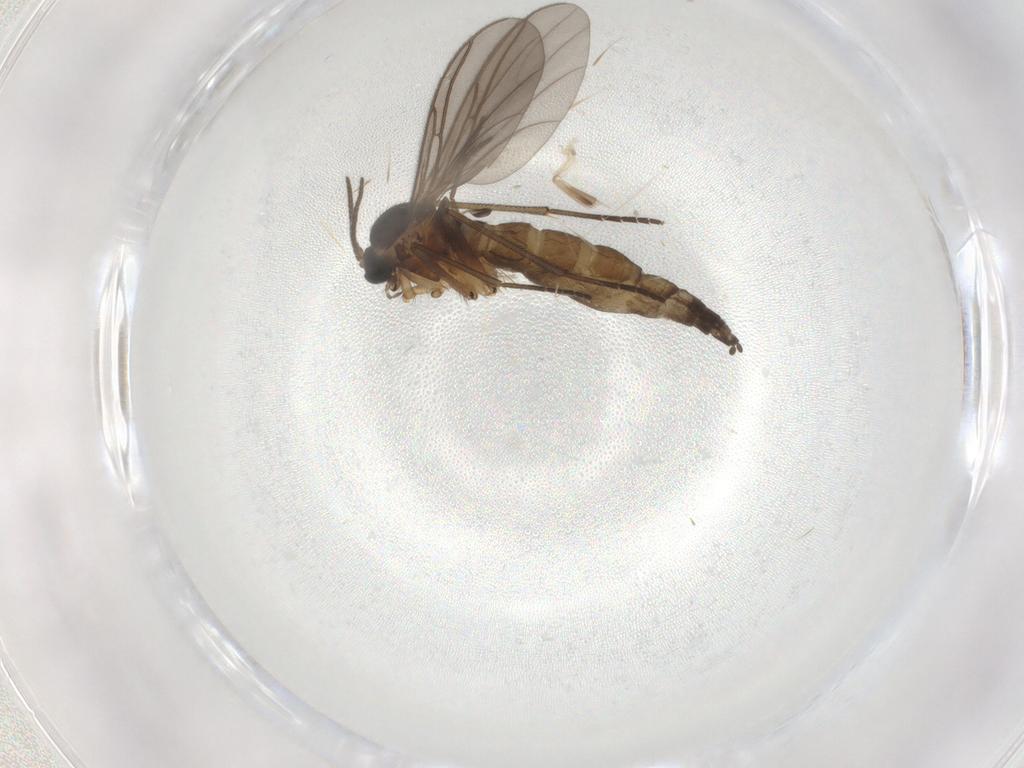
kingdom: Animalia
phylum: Arthropoda
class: Insecta
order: Diptera
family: Sciaridae
